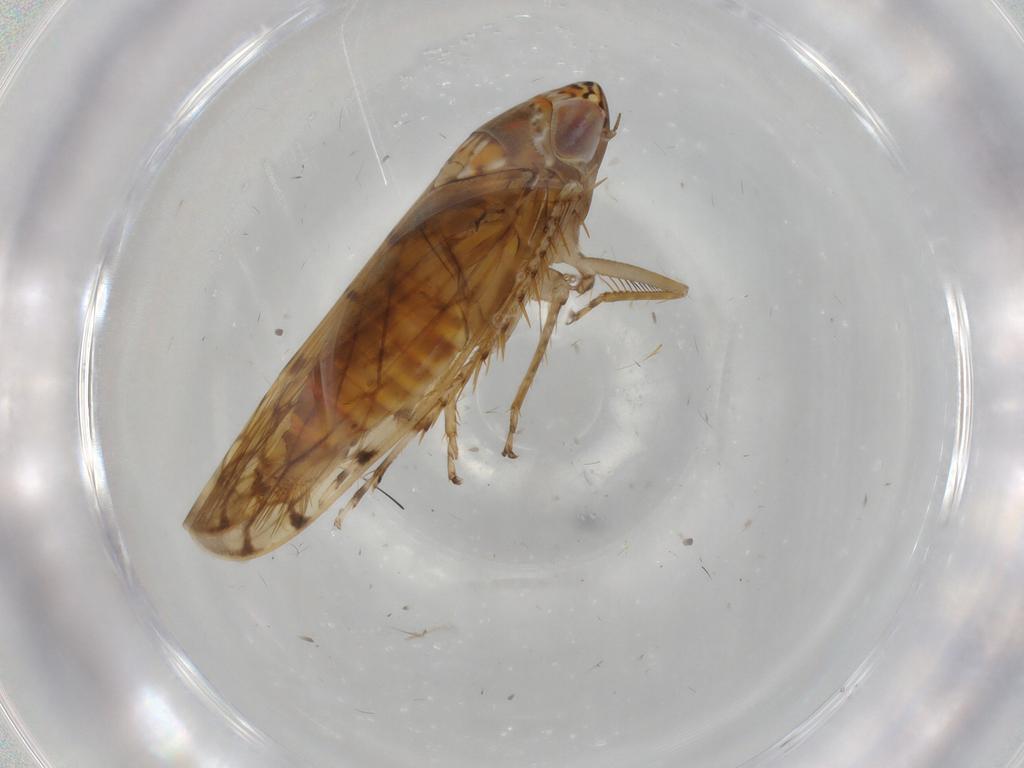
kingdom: Animalia
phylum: Arthropoda
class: Insecta
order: Hemiptera
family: Cicadellidae
